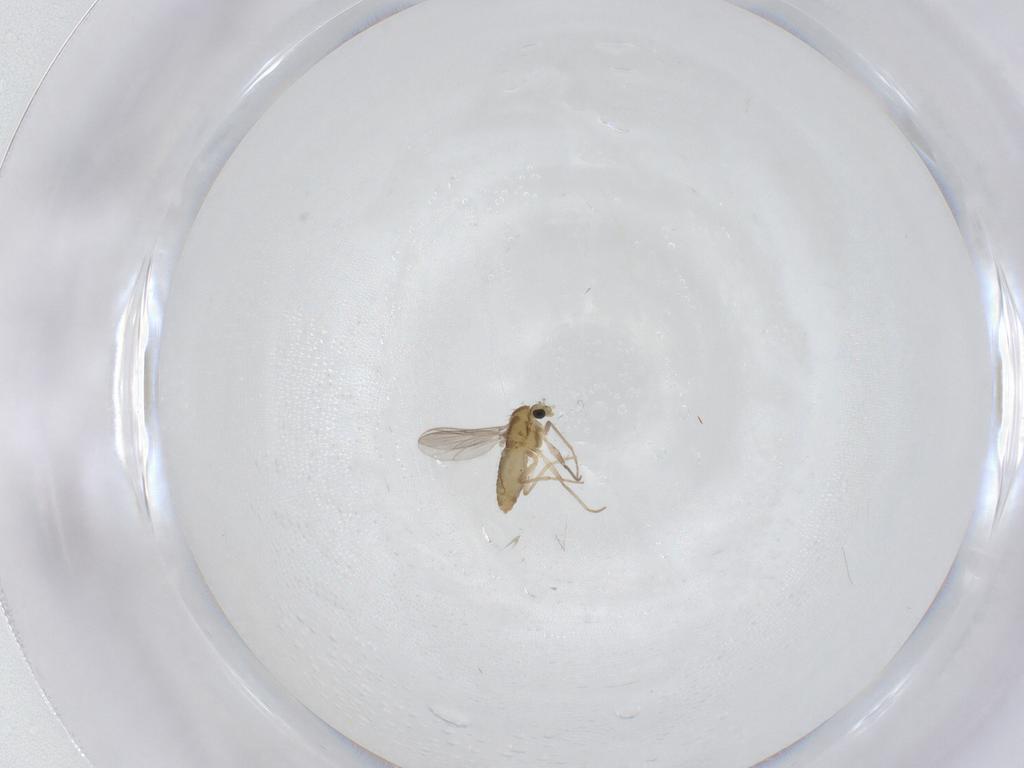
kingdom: Animalia
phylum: Arthropoda
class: Insecta
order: Diptera
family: Chironomidae
